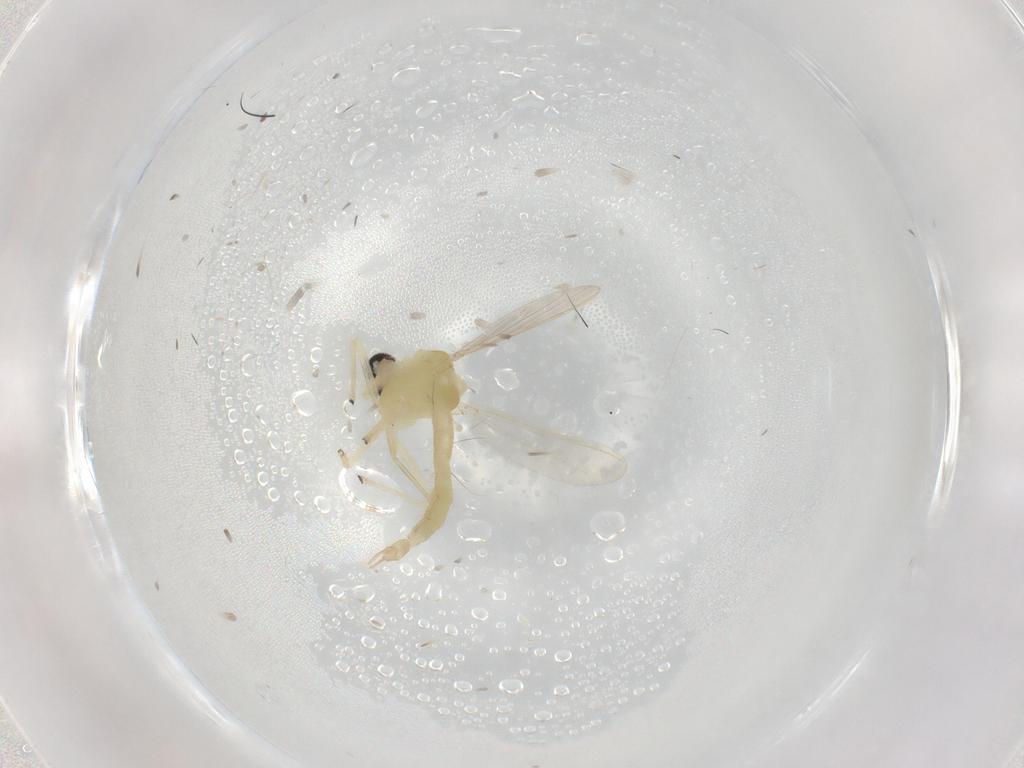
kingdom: Animalia
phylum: Arthropoda
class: Insecta
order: Diptera
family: Chironomidae
